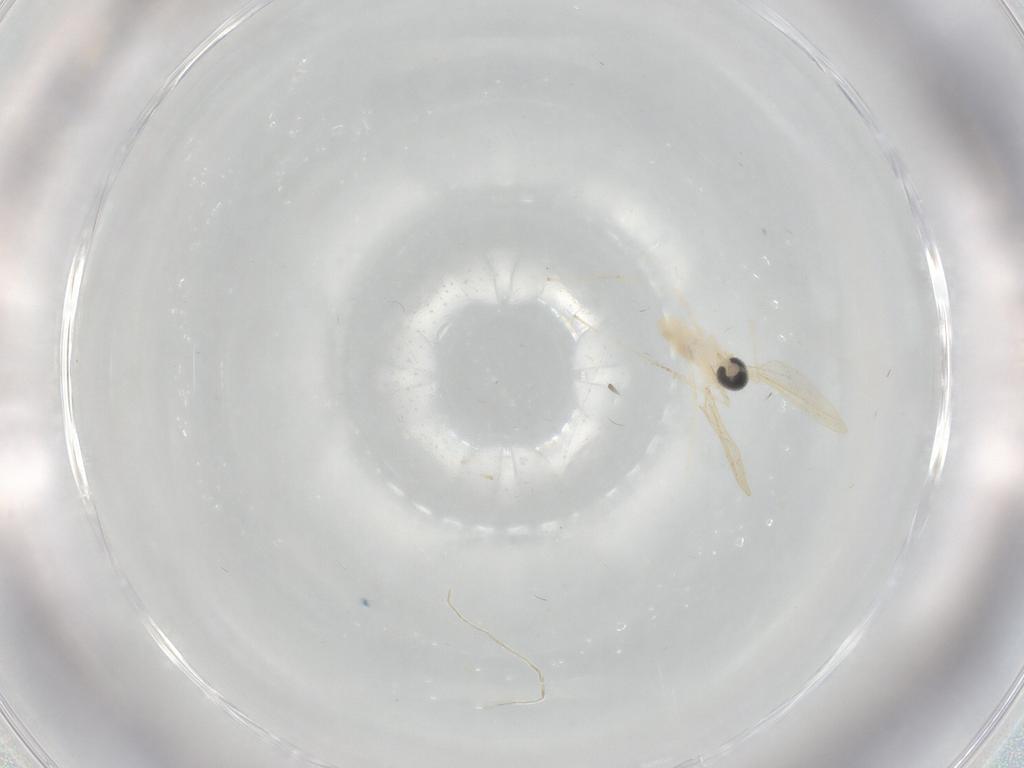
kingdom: Animalia
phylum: Arthropoda
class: Insecta
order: Diptera
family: Cecidomyiidae
